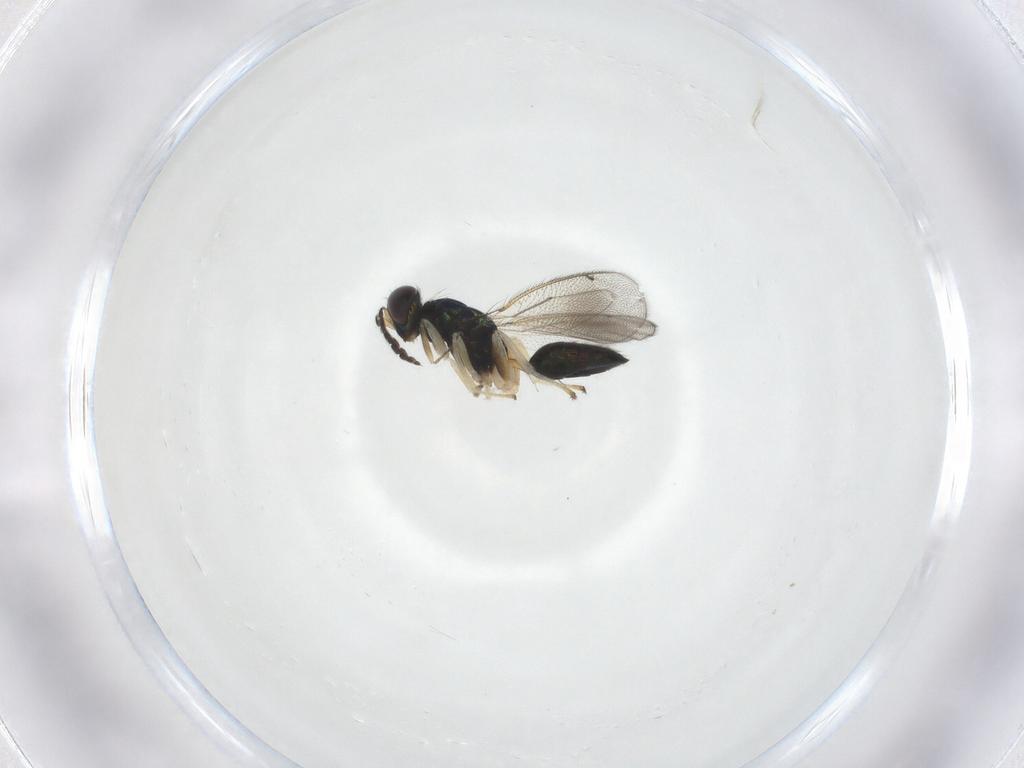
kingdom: Animalia
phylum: Arthropoda
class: Insecta
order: Hymenoptera
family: Eulophidae
